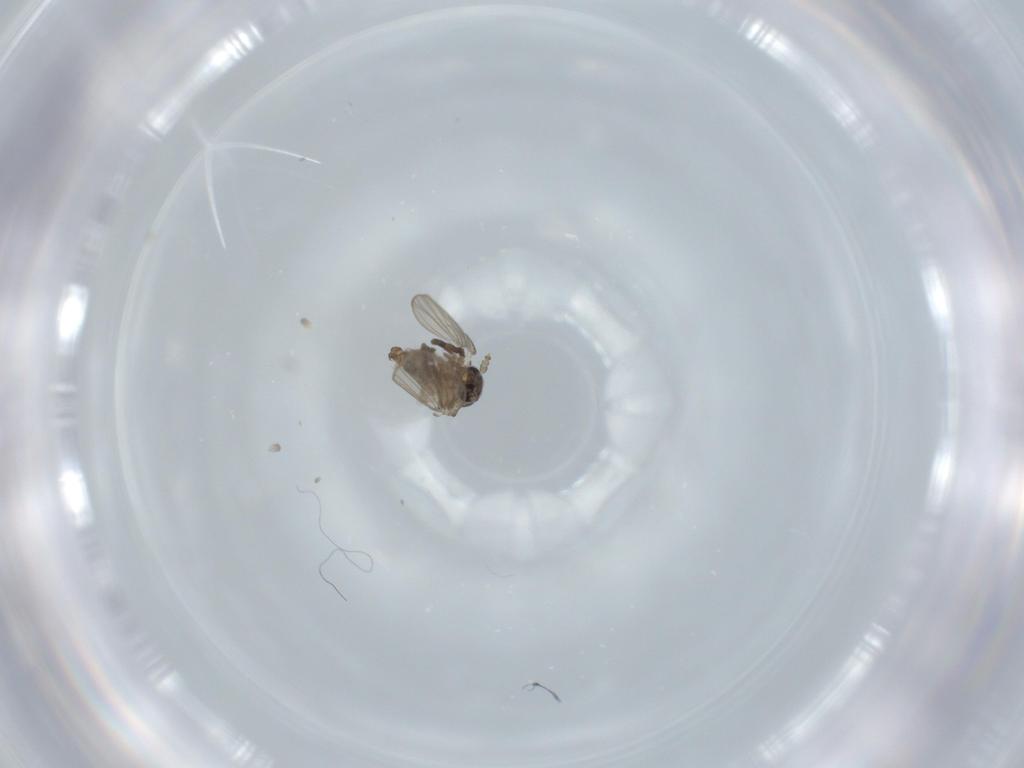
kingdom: Animalia
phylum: Arthropoda
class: Insecta
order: Diptera
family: Psychodidae
